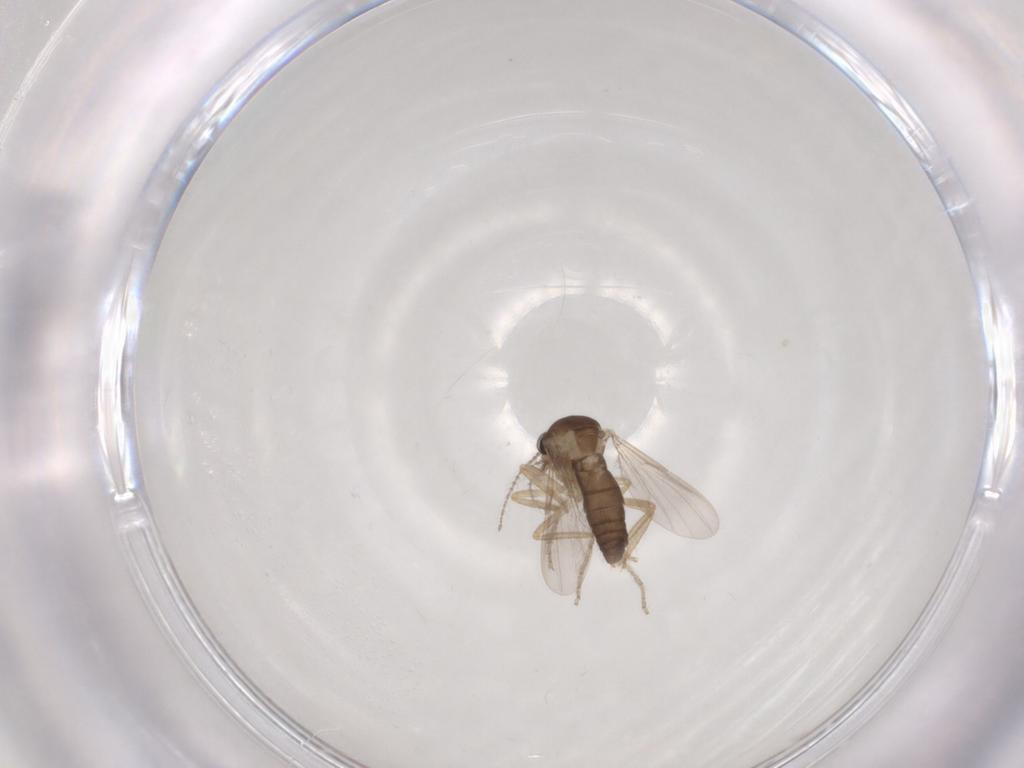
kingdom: Animalia
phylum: Arthropoda
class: Insecta
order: Diptera
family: Ceratopogonidae
